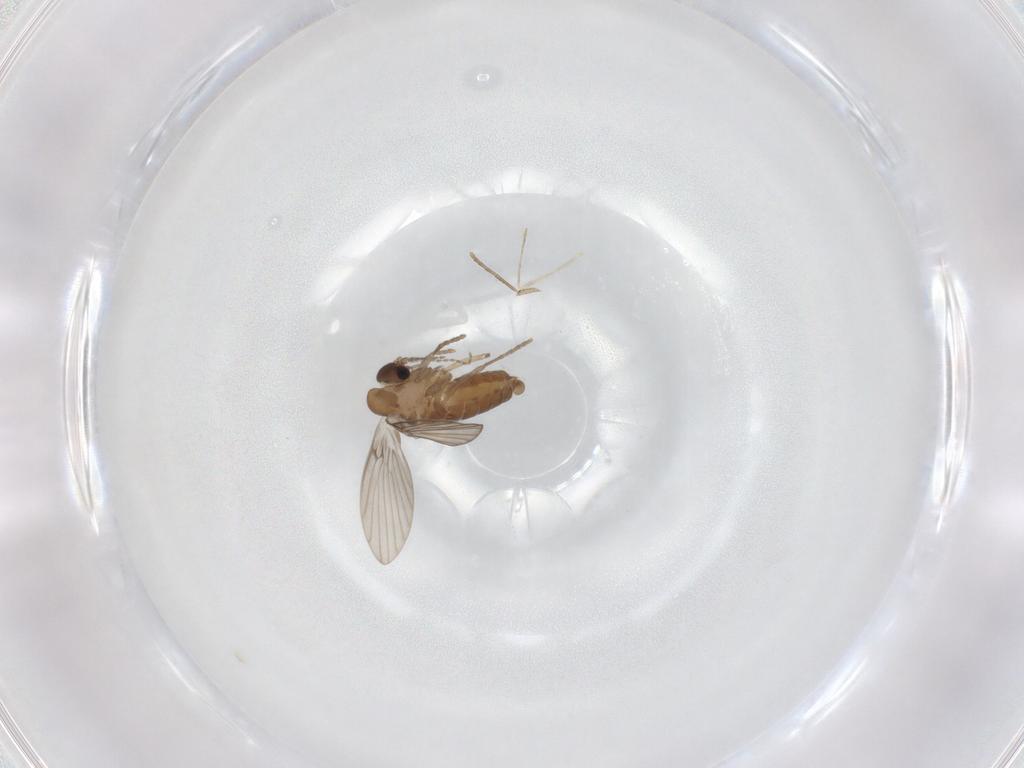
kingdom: Animalia
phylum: Arthropoda
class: Insecta
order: Diptera
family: Cecidomyiidae
